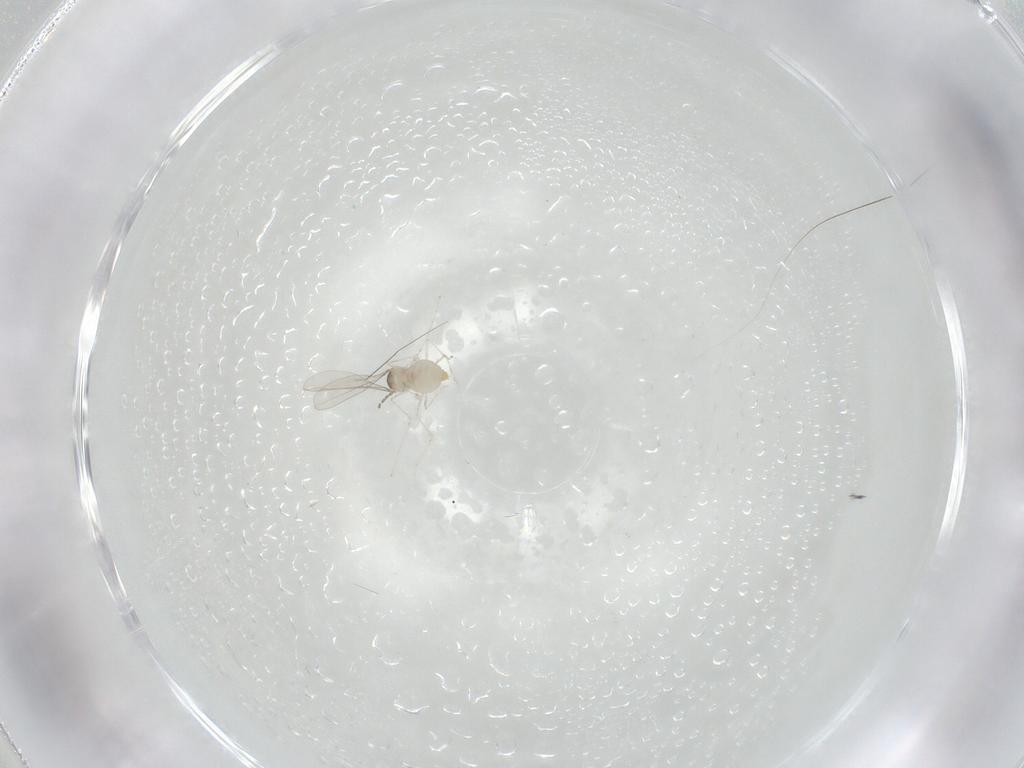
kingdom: Animalia
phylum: Arthropoda
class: Insecta
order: Diptera
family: Cecidomyiidae
